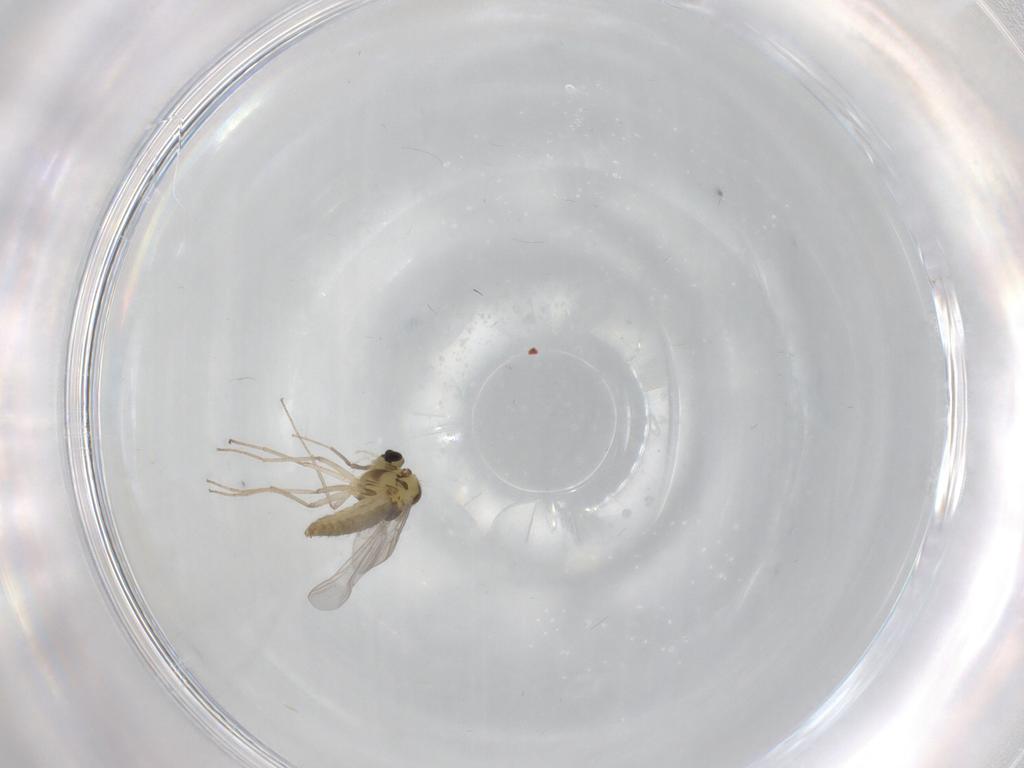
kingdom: Animalia
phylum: Arthropoda
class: Insecta
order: Diptera
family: Chironomidae
